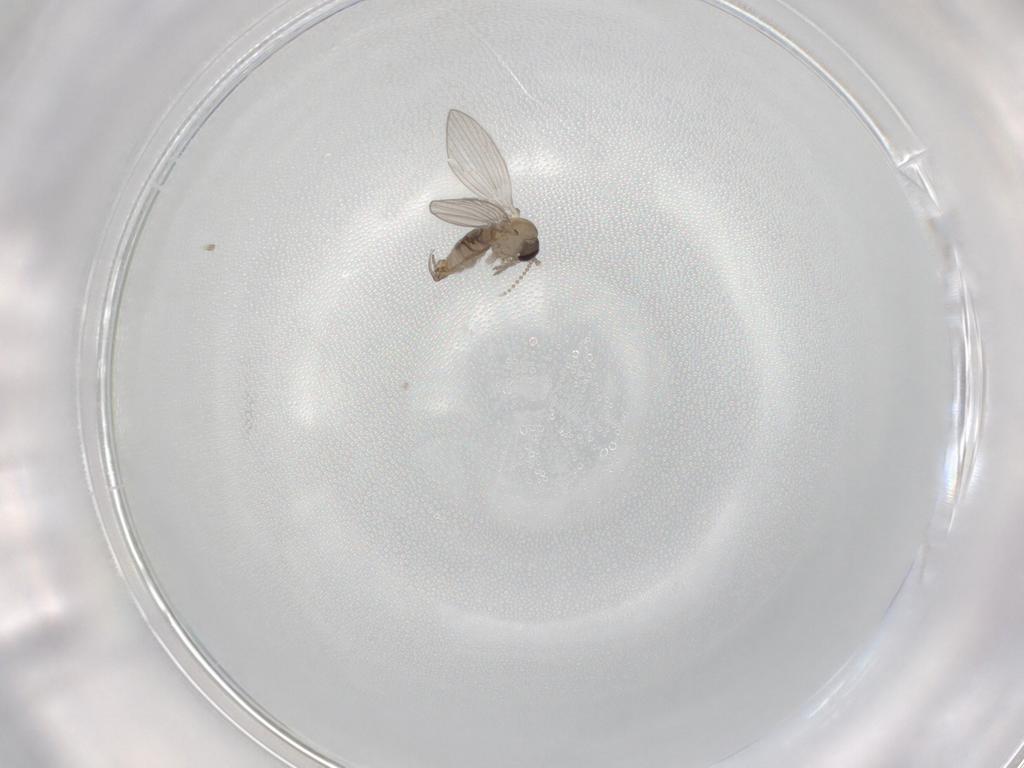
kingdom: Animalia
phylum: Arthropoda
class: Insecta
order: Diptera
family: Psychodidae
